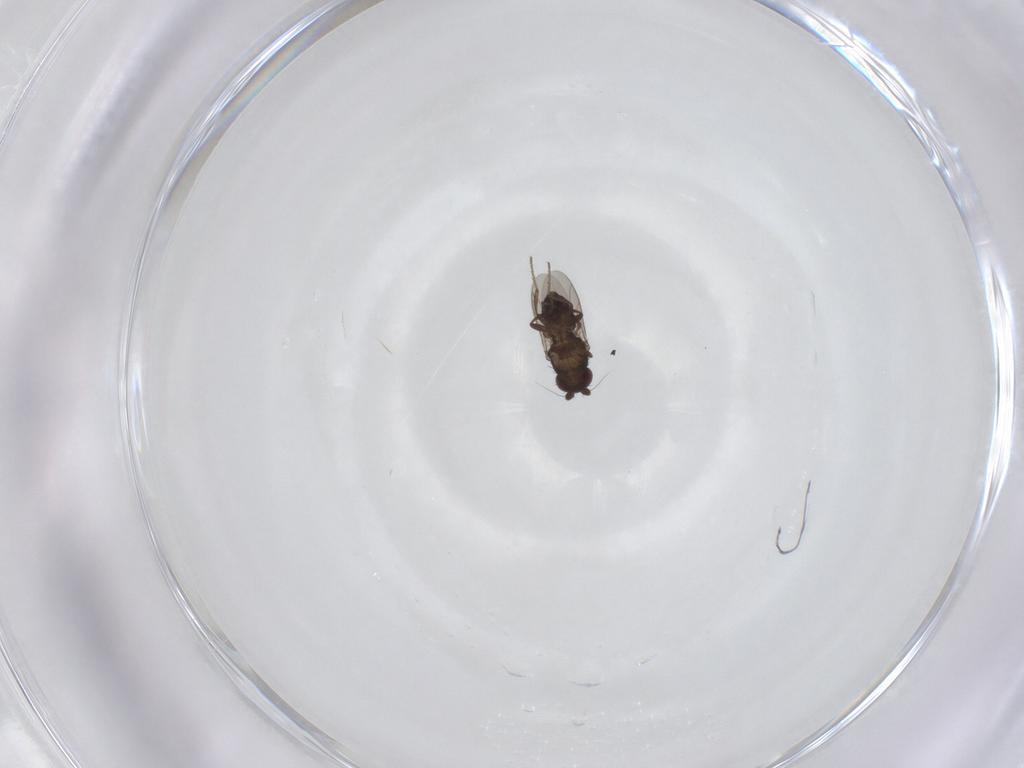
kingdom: Animalia
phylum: Arthropoda
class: Insecta
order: Diptera
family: Sphaeroceridae
